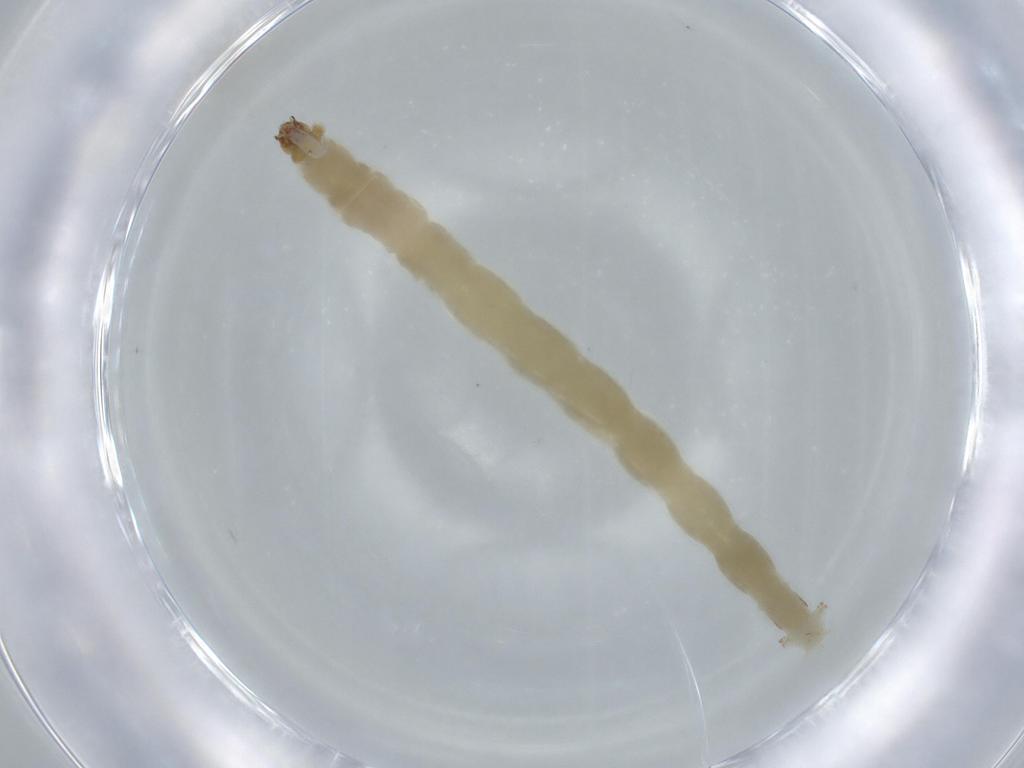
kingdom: Animalia
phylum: Arthropoda
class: Insecta
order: Diptera
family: Chironomidae
